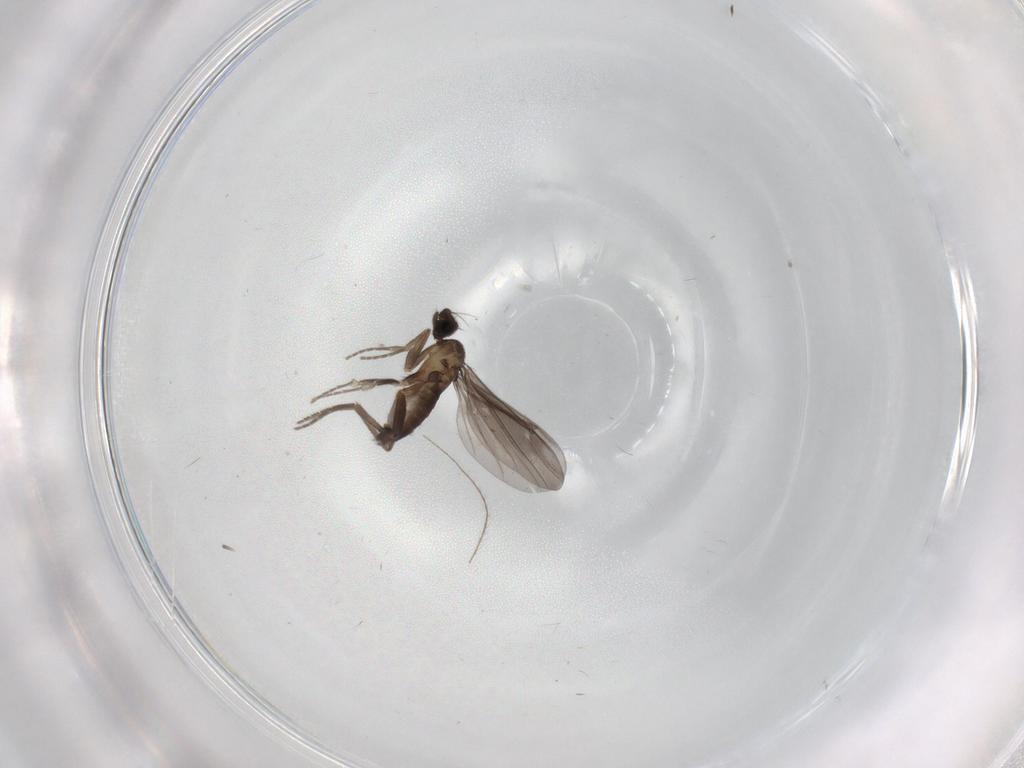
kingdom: Animalia
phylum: Arthropoda
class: Insecta
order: Diptera
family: Phoridae
